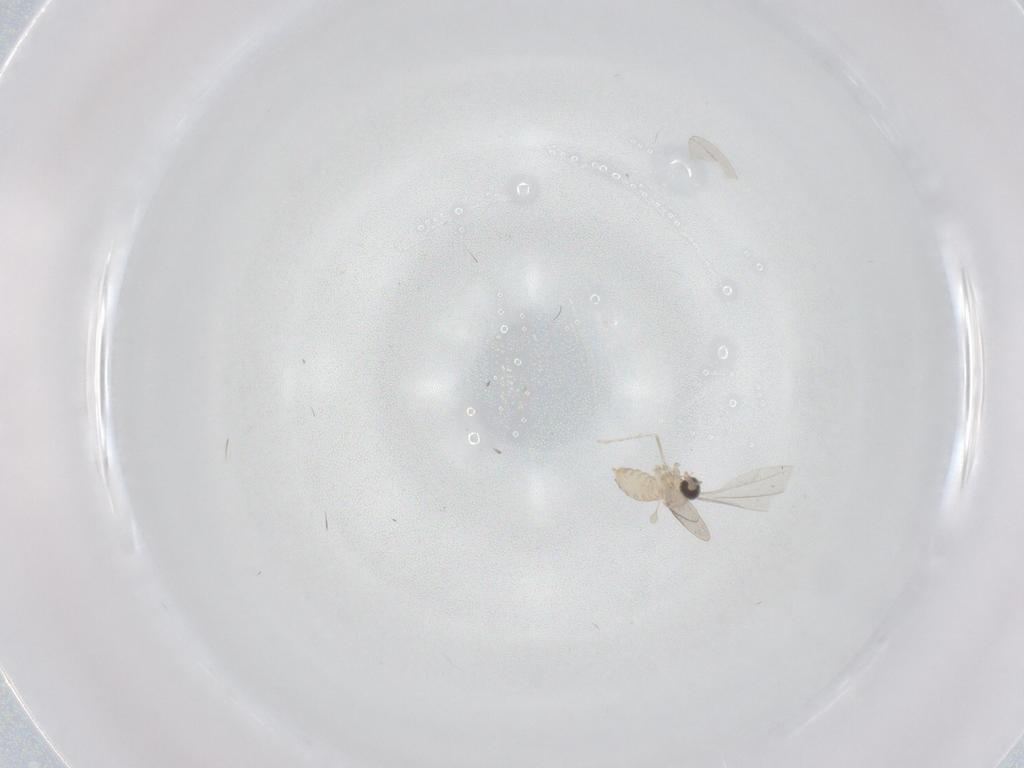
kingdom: Animalia
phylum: Arthropoda
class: Insecta
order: Diptera
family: Cecidomyiidae
